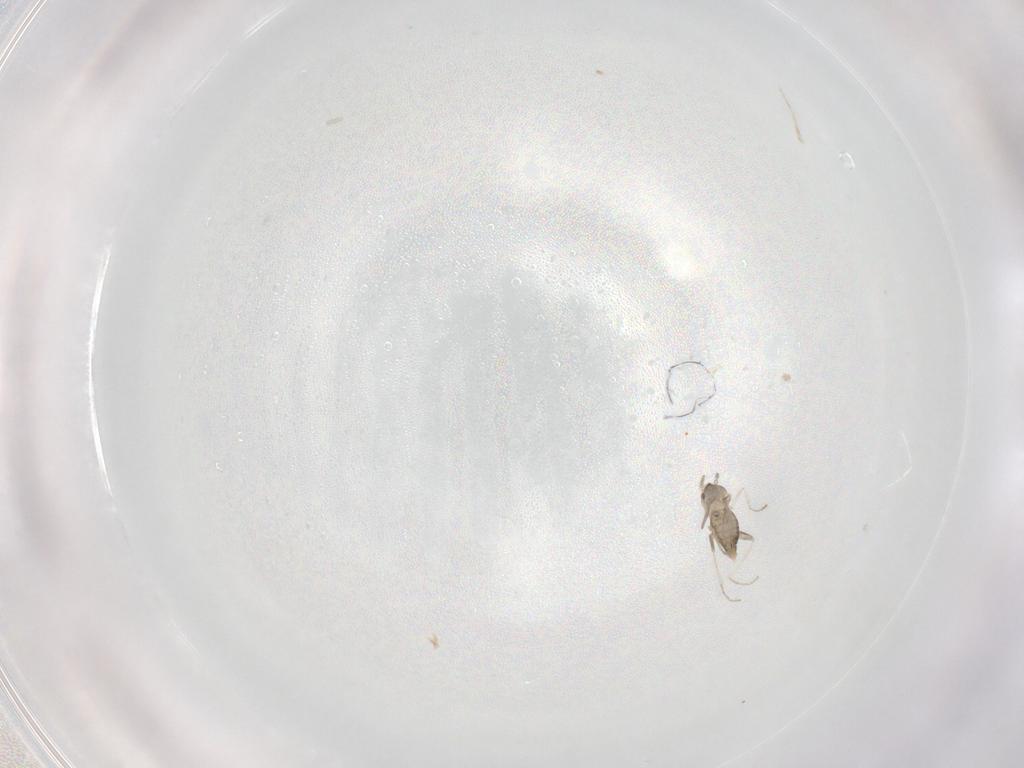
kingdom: Animalia
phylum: Arthropoda
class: Insecta
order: Diptera
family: Cecidomyiidae
